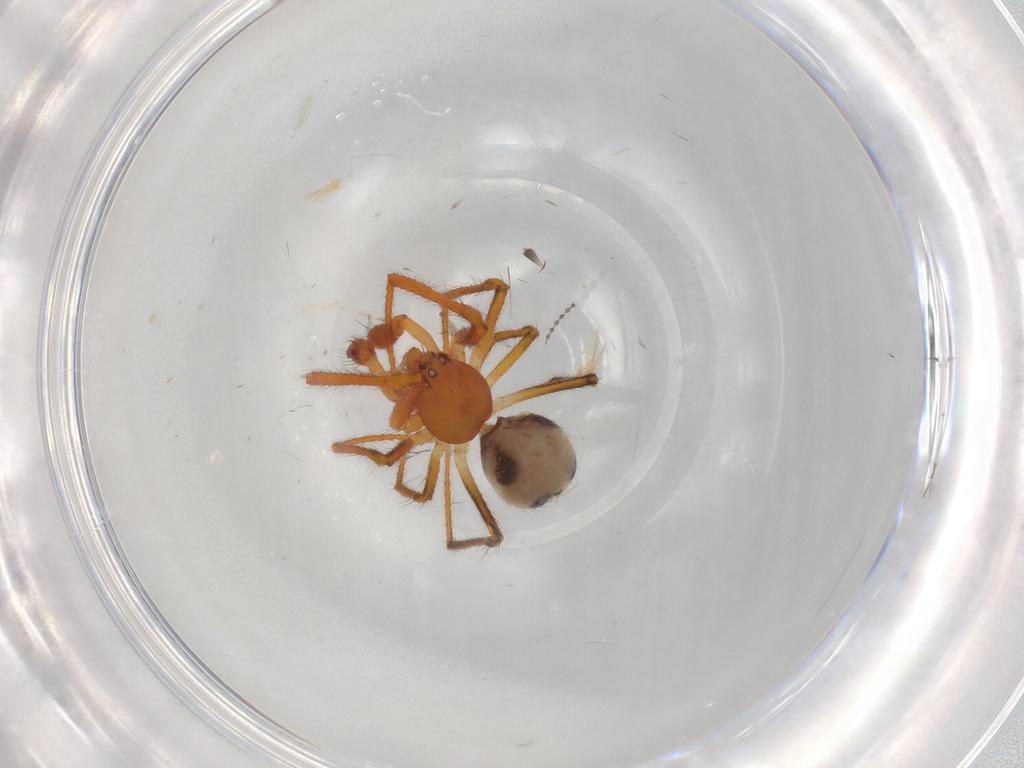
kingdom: Animalia
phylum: Arthropoda
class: Arachnida
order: Araneae
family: Theridiidae
